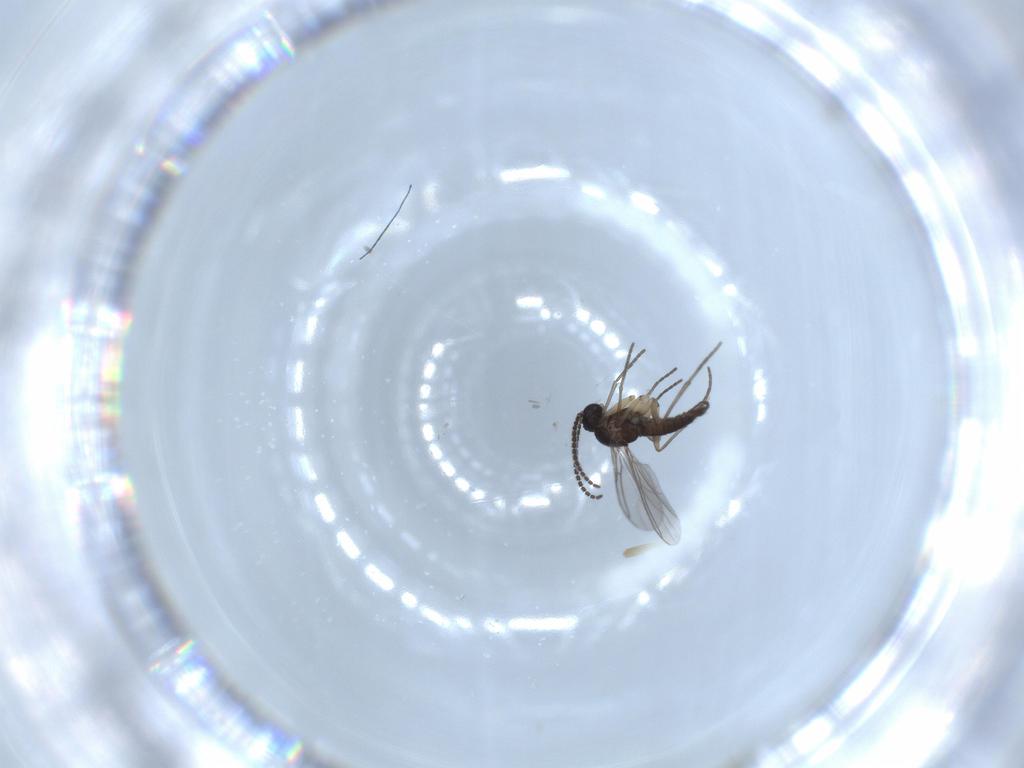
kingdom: Animalia
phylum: Arthropoda
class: Insecta
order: Diptera
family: Sciaridae
